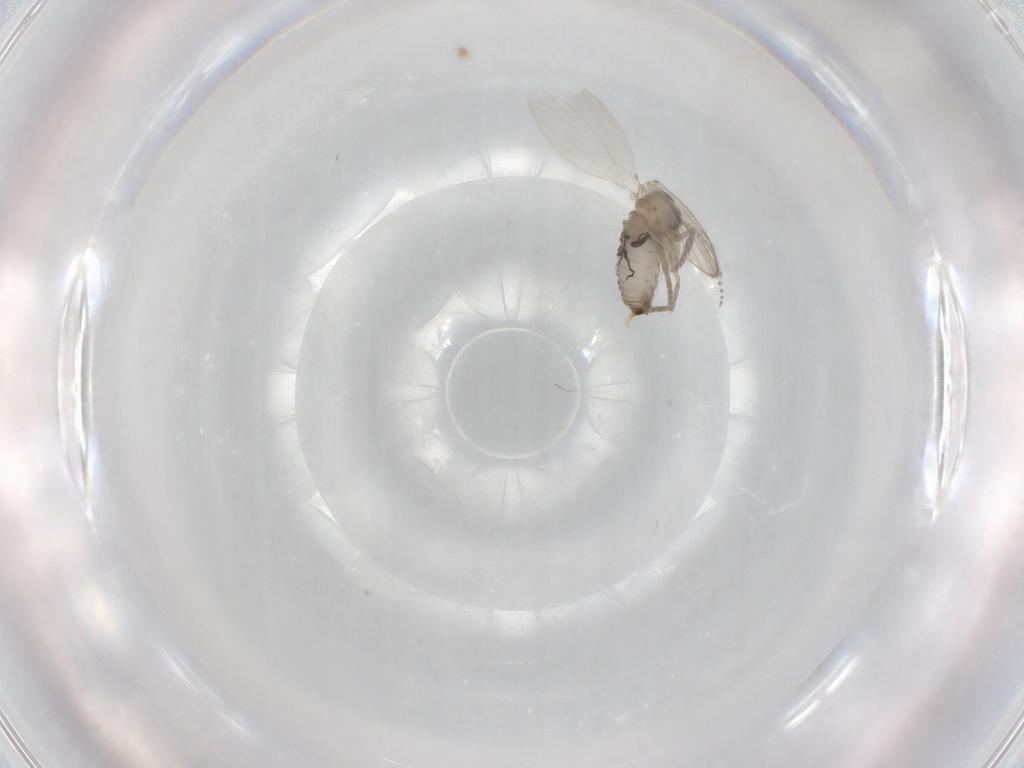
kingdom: Animalia
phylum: Arthropoda
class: Insecta
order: Diptera
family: Psychodidae
